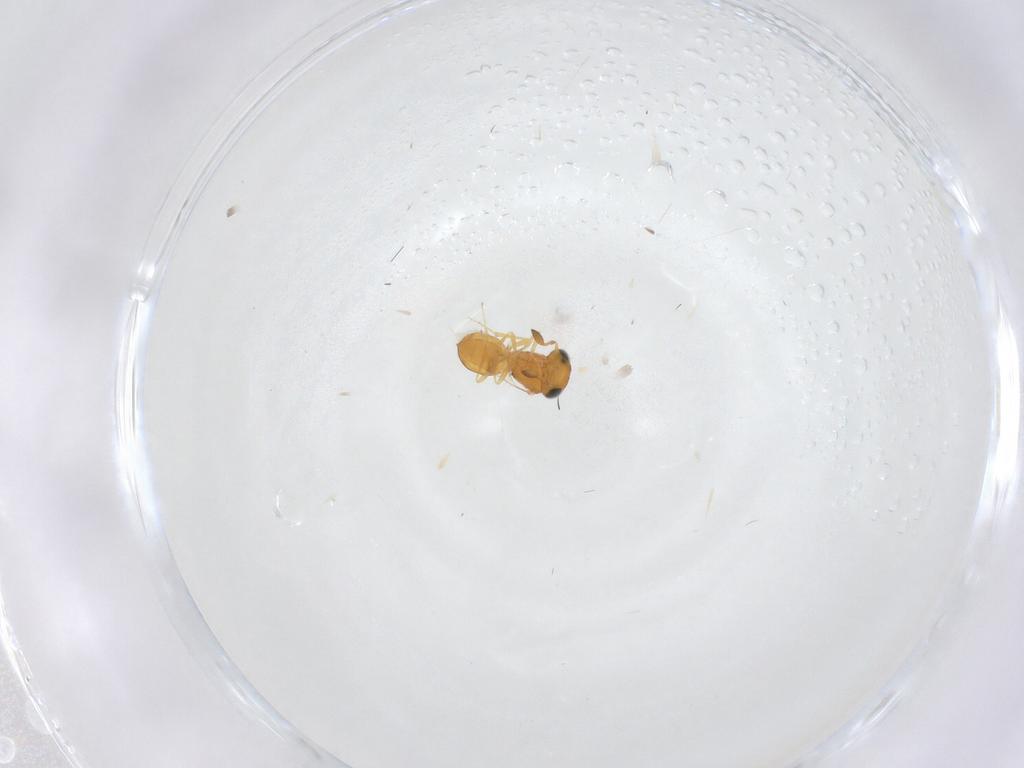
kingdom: Animalia
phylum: Arthropoda
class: Insecta
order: Hymenoptera
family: Scelionidae
